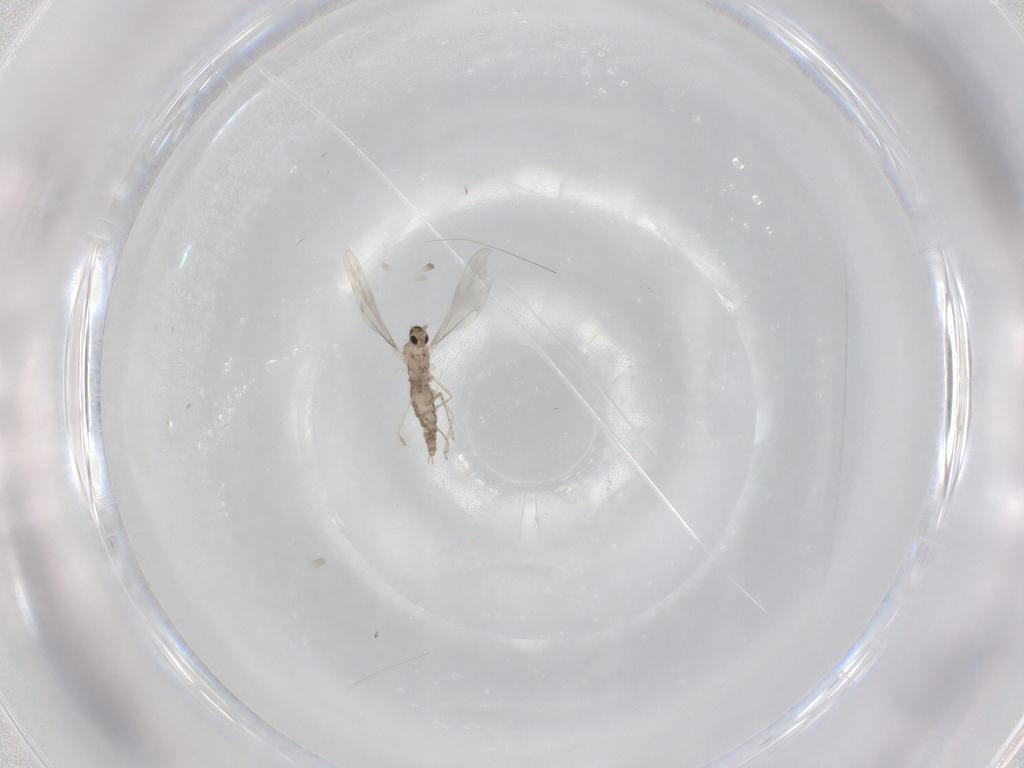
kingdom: Animalia
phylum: Arthropoda
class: Insecta
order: Diptera
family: Cecidomyiidae
